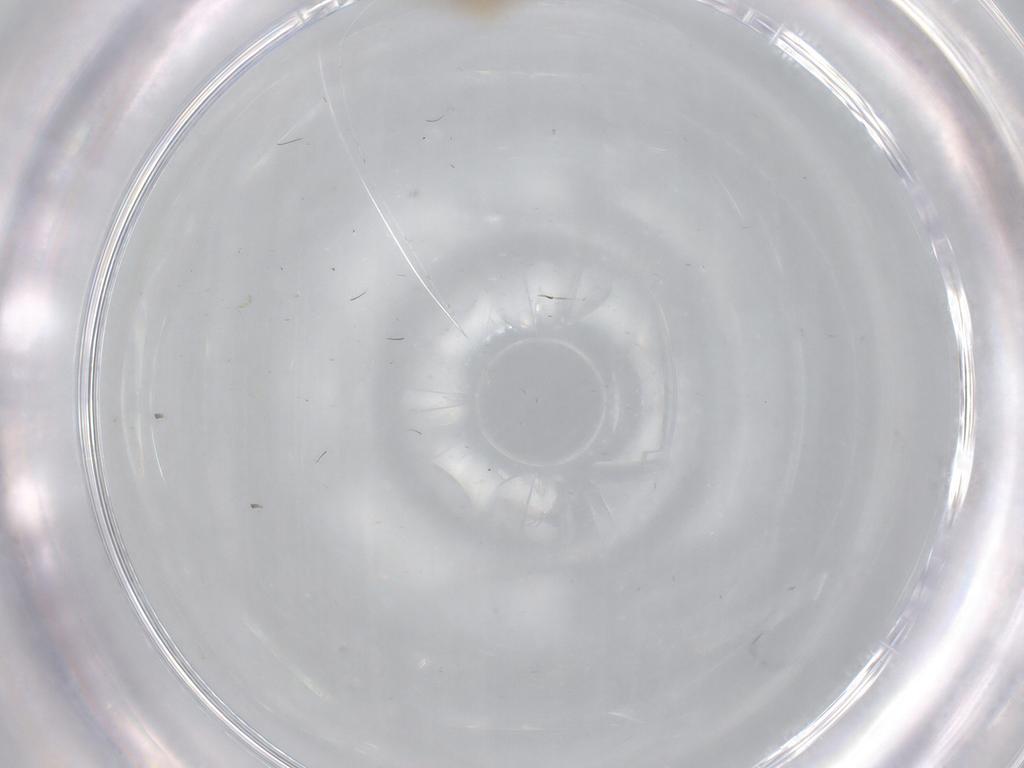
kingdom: Animalia
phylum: Arthropoda
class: Insecta
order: Diptera
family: Cecidomyiidae
